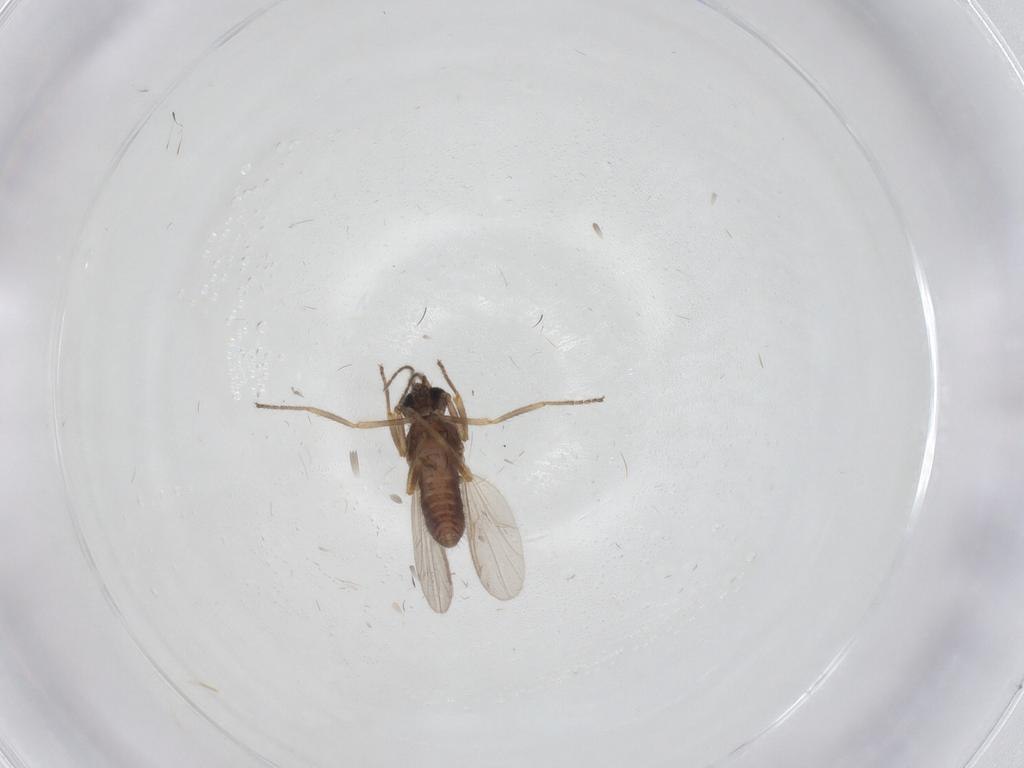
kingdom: Animalia
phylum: Arthropoda
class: Insecta
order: Diptera
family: Ceratopogonidae
